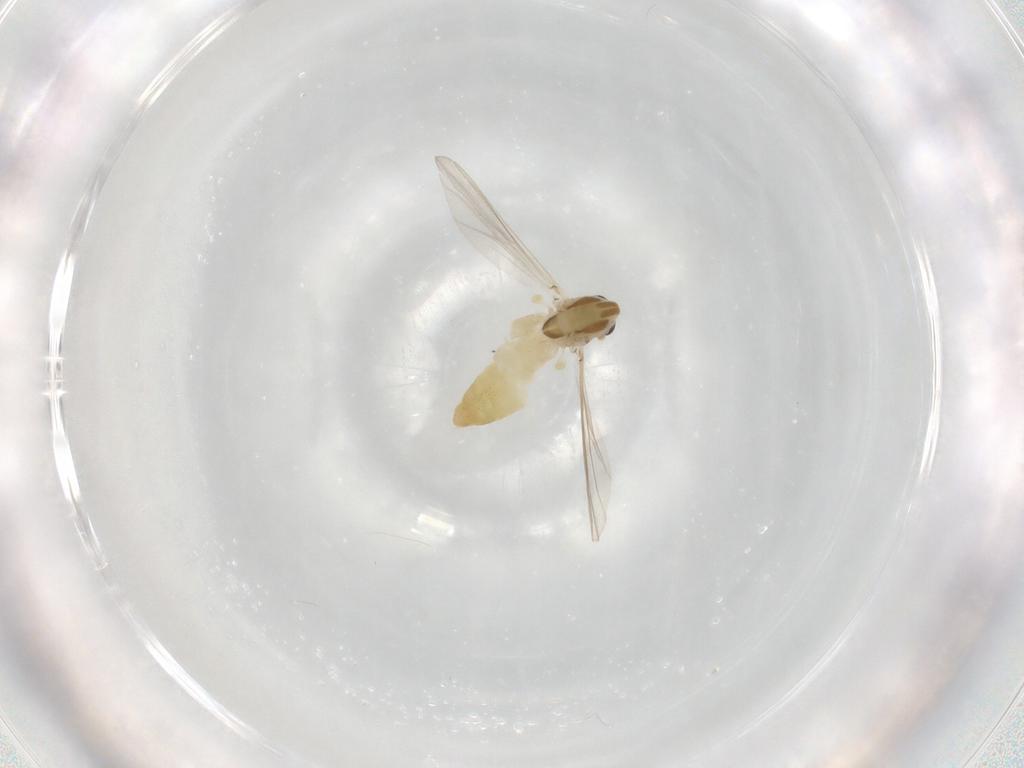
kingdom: Animalia
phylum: Arthropoda
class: Insecta
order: Diptera
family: Chironomidae
